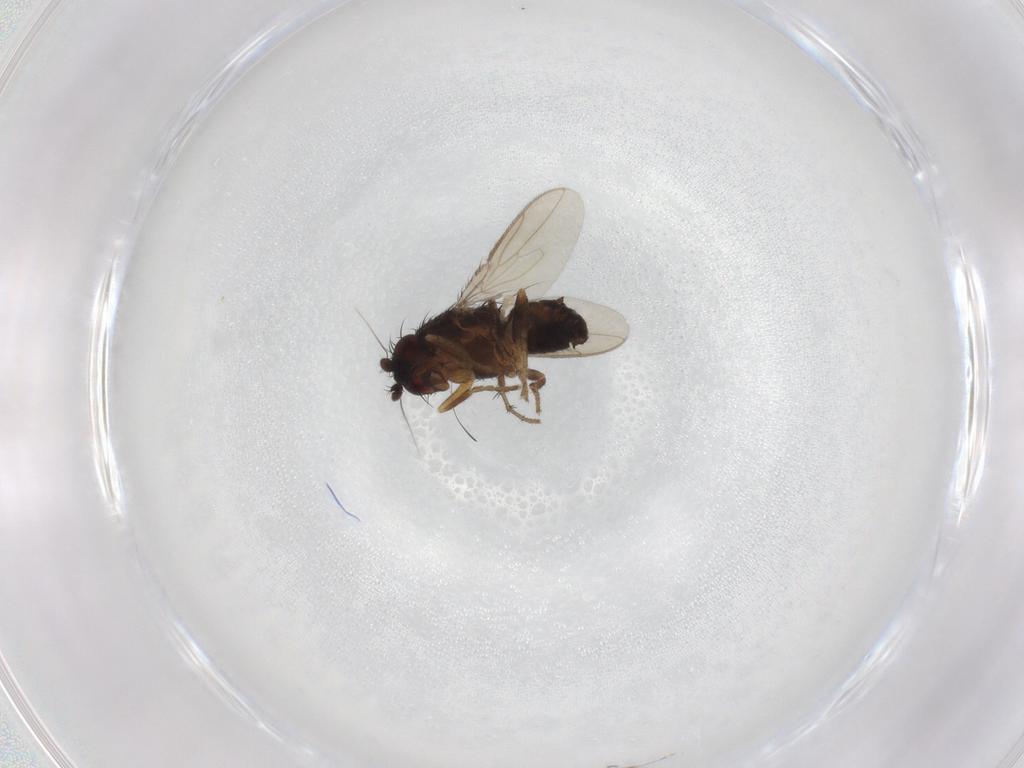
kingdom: Animalia
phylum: Arthropoda
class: Insecta
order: Diptera
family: Sphaeroceridae
